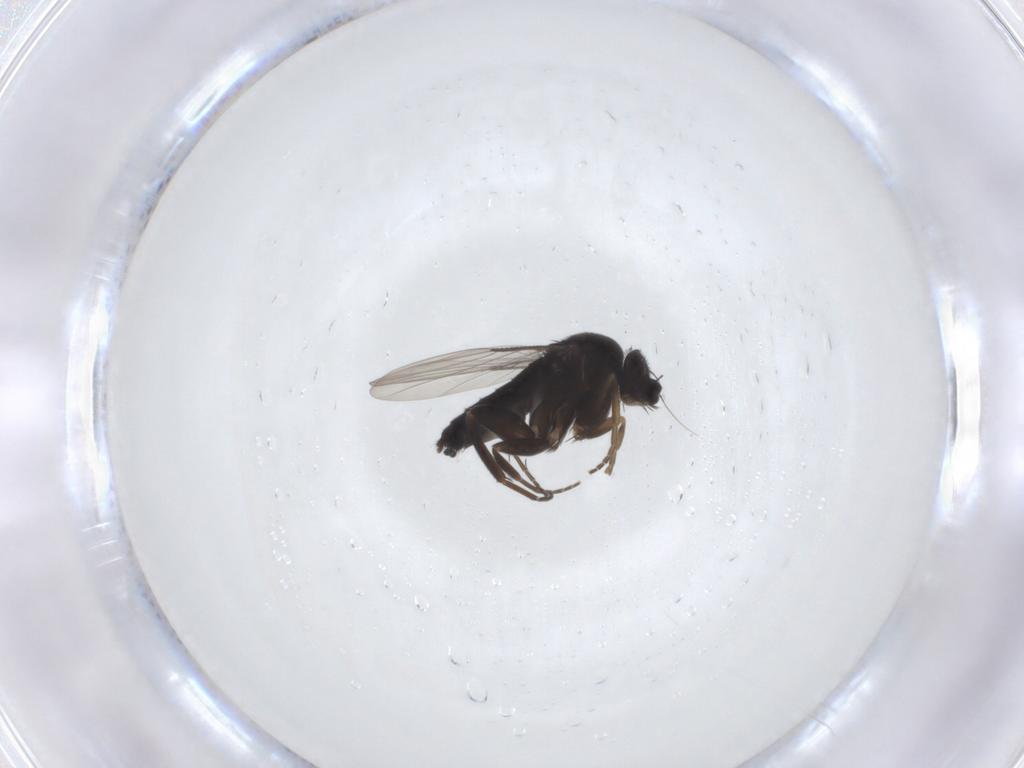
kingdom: Animalia
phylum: Arthropoda
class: Insecta
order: Diptera
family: Ceratopogonidae
